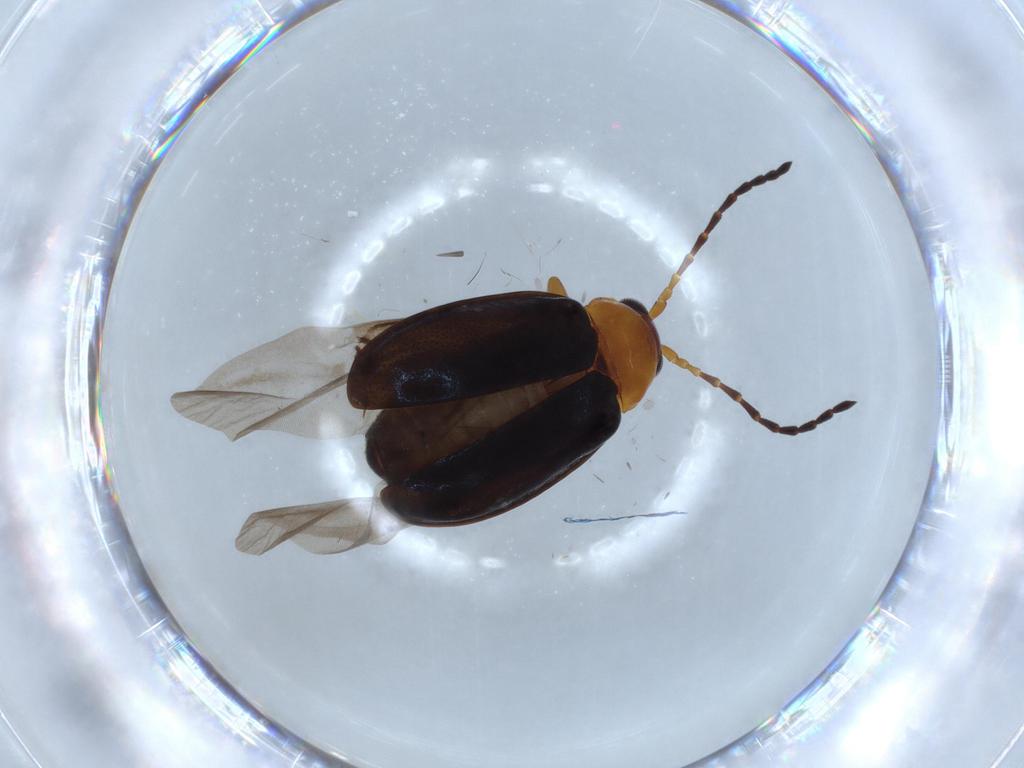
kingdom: Animalia
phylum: Arthropoda
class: Insecta
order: Coleoptera
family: Chrysomelidae
